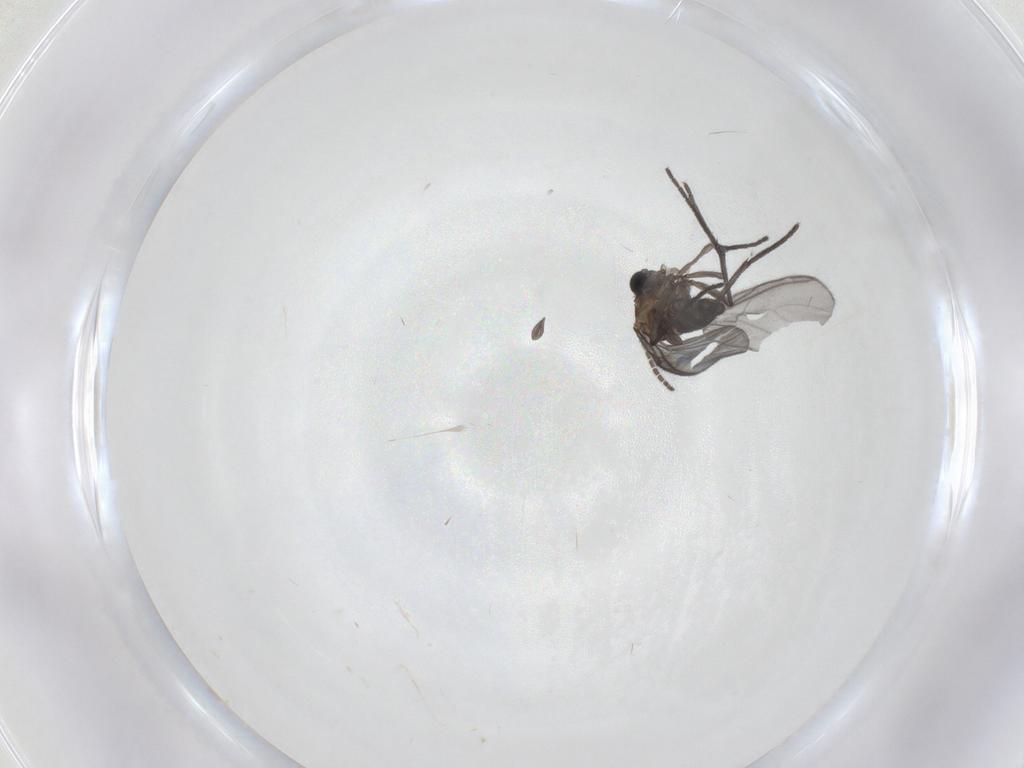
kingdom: Animalia
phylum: Arthropoda
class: Insecta
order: Diptera
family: Sciaridae
